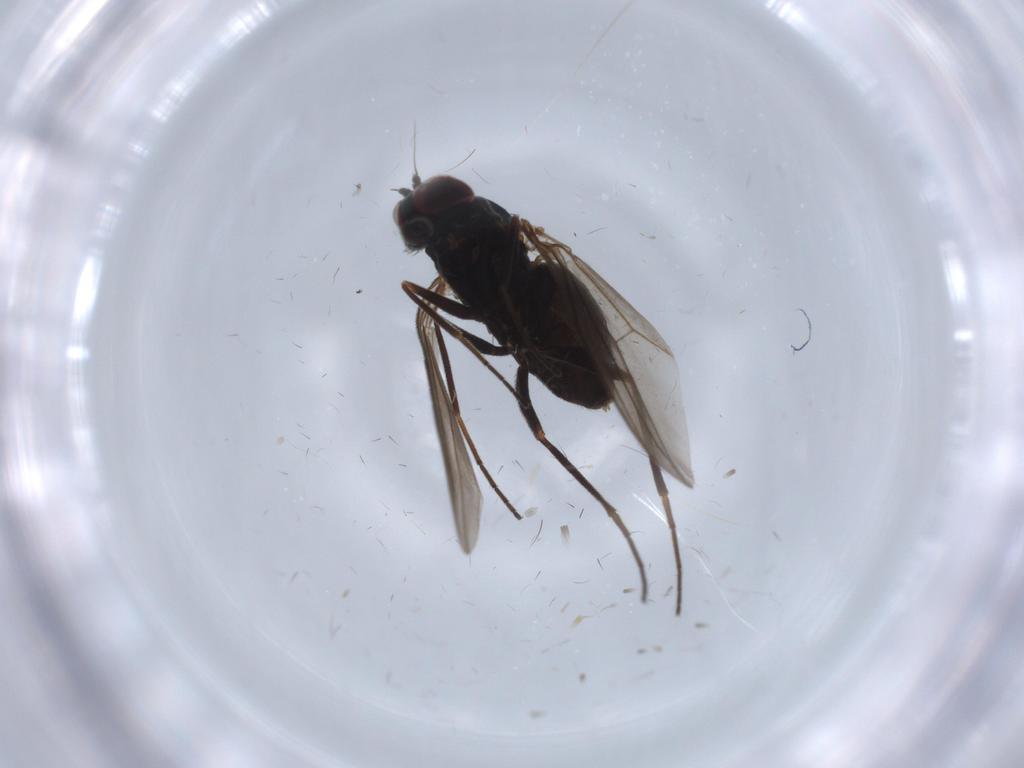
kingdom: Animalia
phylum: Arthropoda
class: Insecta
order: Diptera
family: Dolichopodidae
